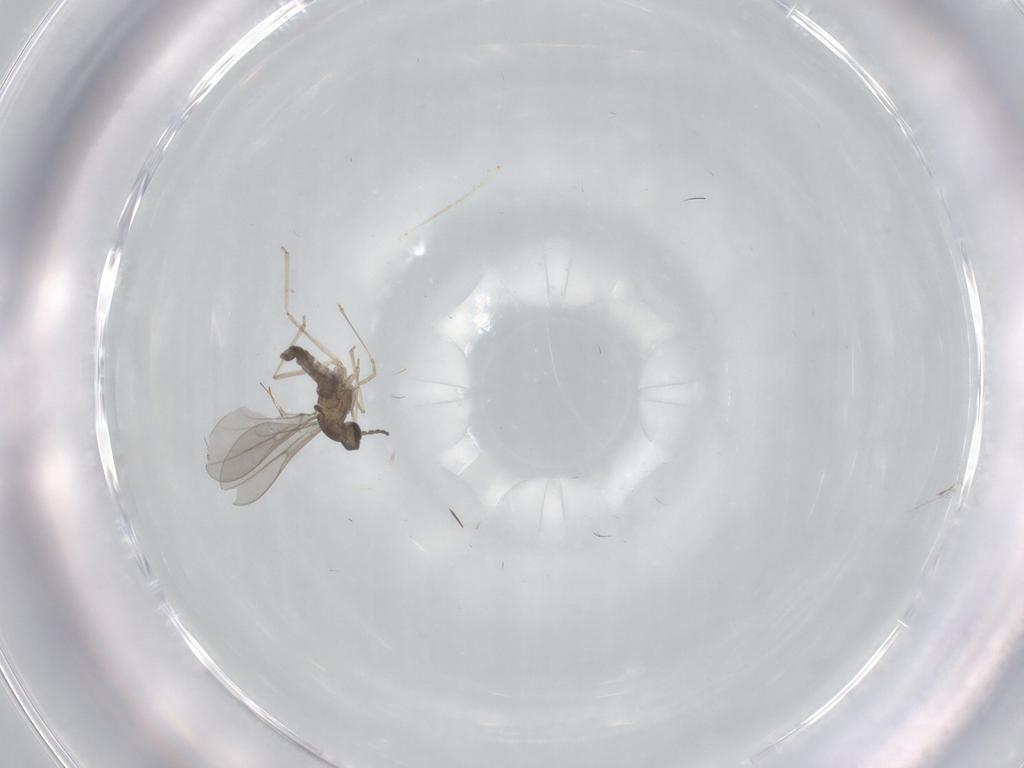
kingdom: Animalia
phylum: Arthropoda
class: Insecta
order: Diptera
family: Cecidomyiidae
